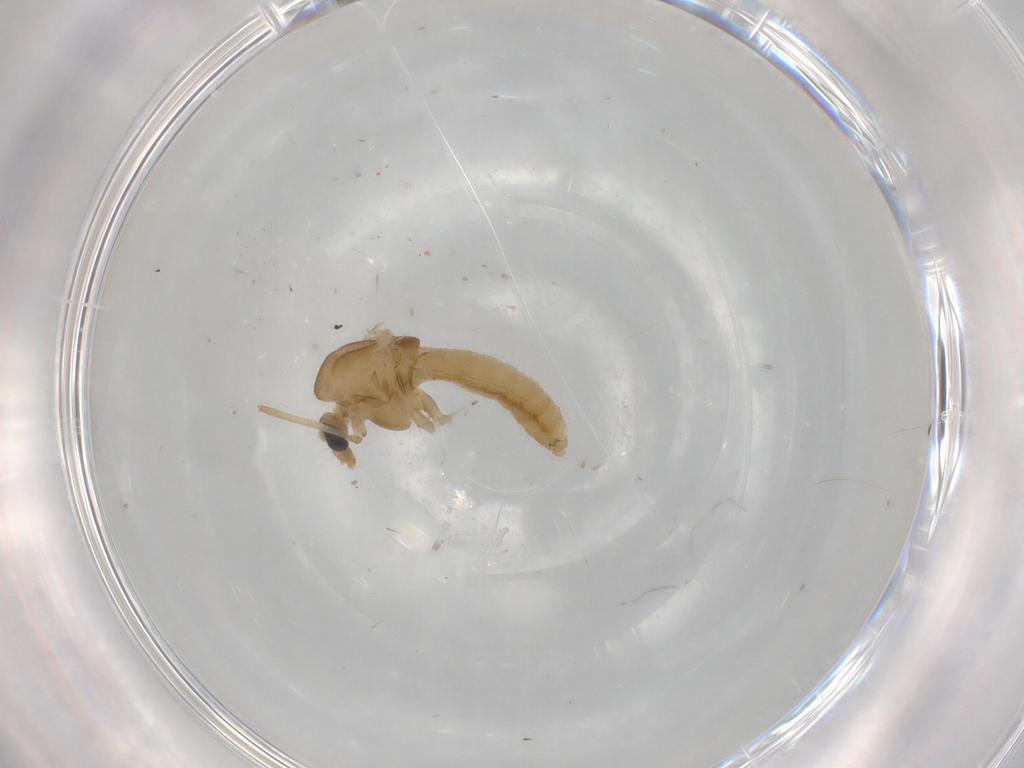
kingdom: Animalia
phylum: Arthropoda
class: Insecta
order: Diptera
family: Chironomidae
